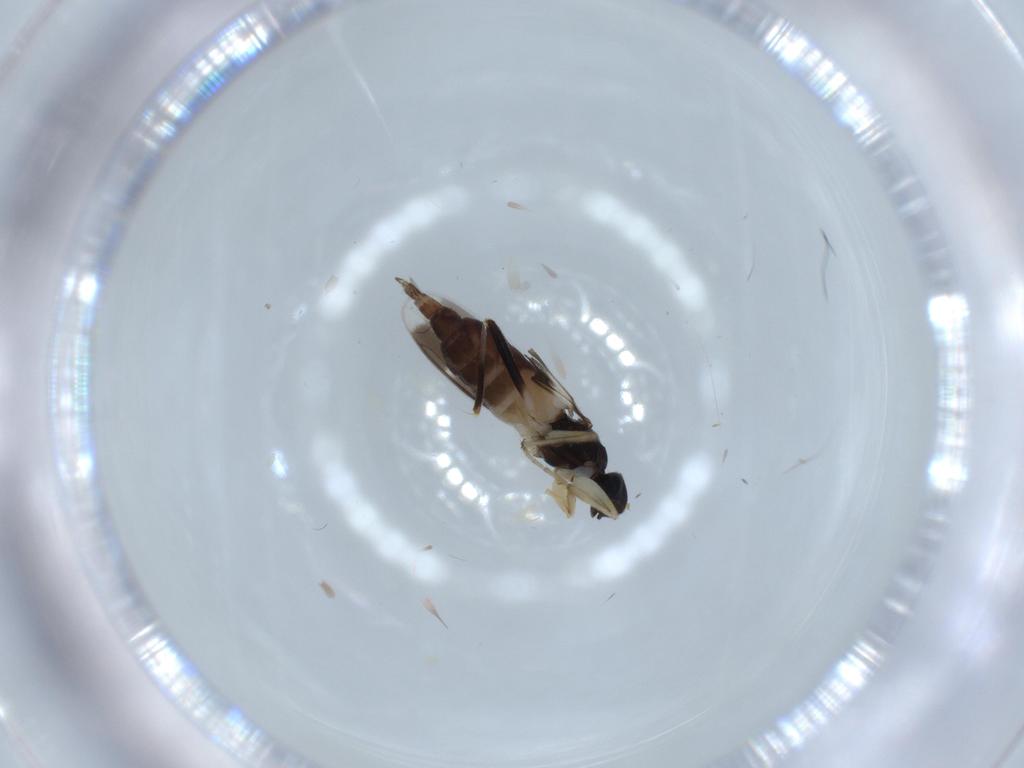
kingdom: Animalia
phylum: Arthropoda
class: Insecta
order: Diptera
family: Hybotidae
